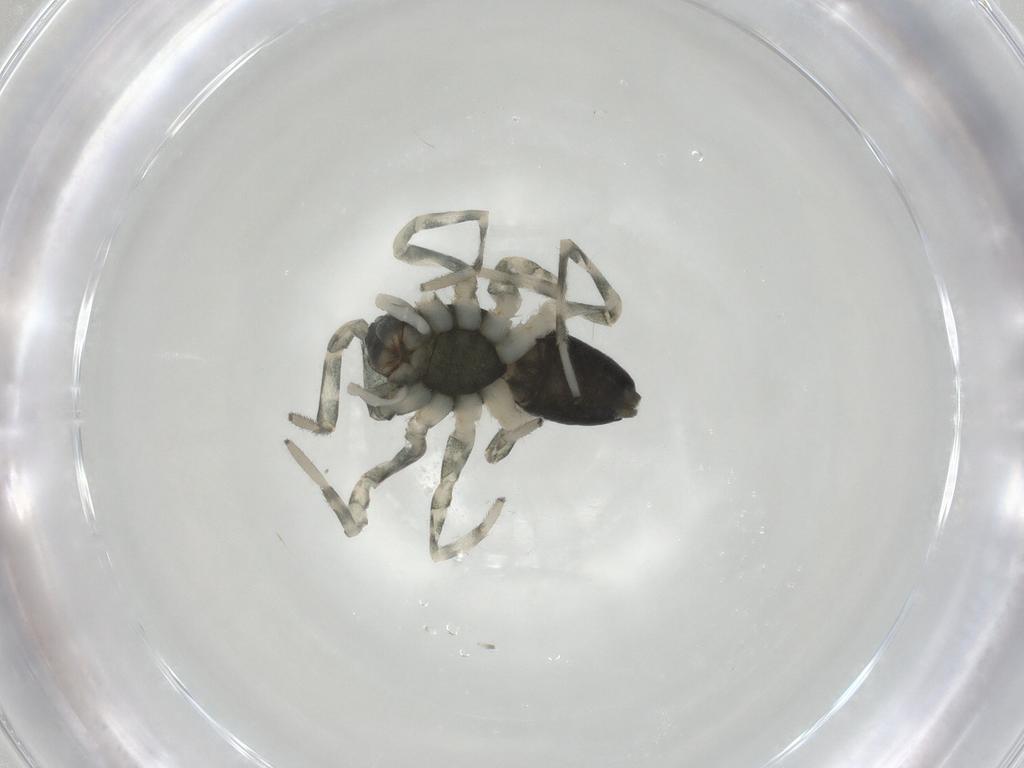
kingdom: Animalia
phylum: Arthropoda
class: Arachnida
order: Araneae
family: Trachelidae
